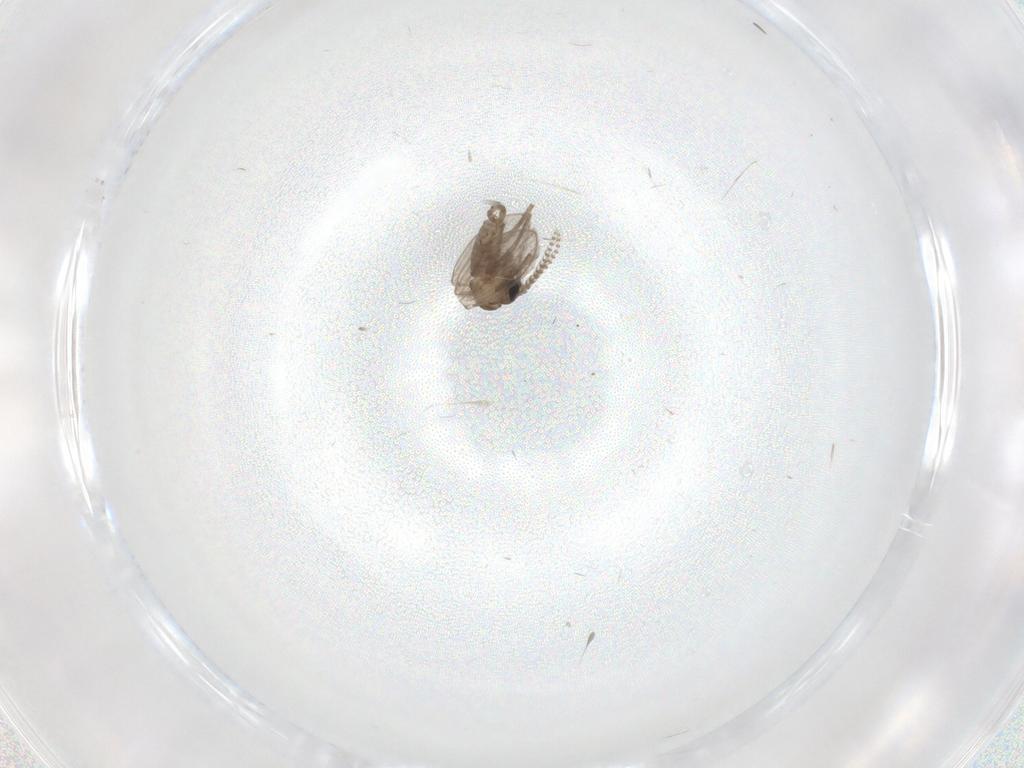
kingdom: Animalia
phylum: Arthropoda
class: Insecta
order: Diptera
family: Psychodidae
